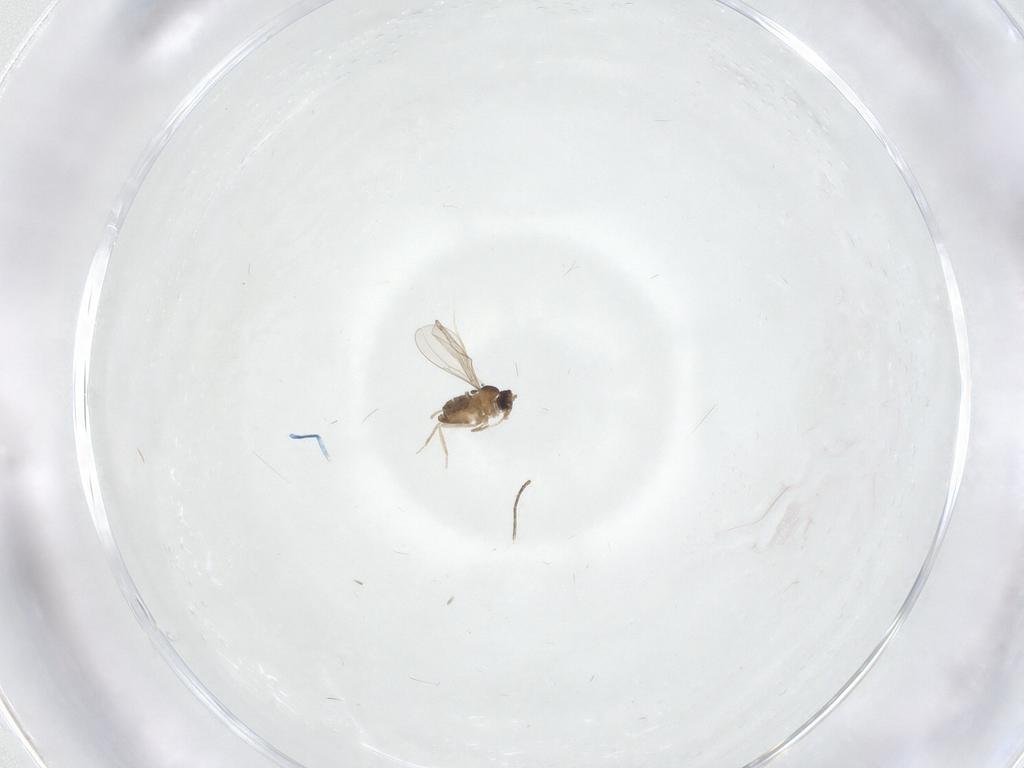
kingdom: Animalia
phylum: Arthropoda
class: Insecta
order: Diptera
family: Cecidomyiidae
